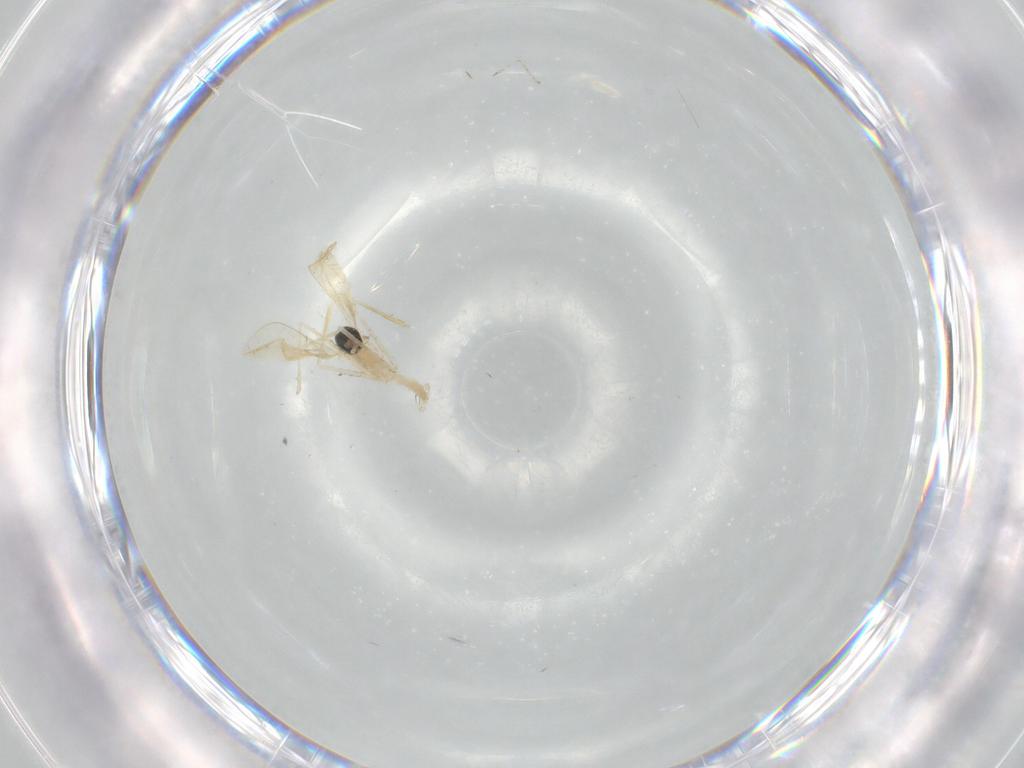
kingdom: Animalia
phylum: Arthropoda
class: Insecta
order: Diptera
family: Cecidomyiidae
